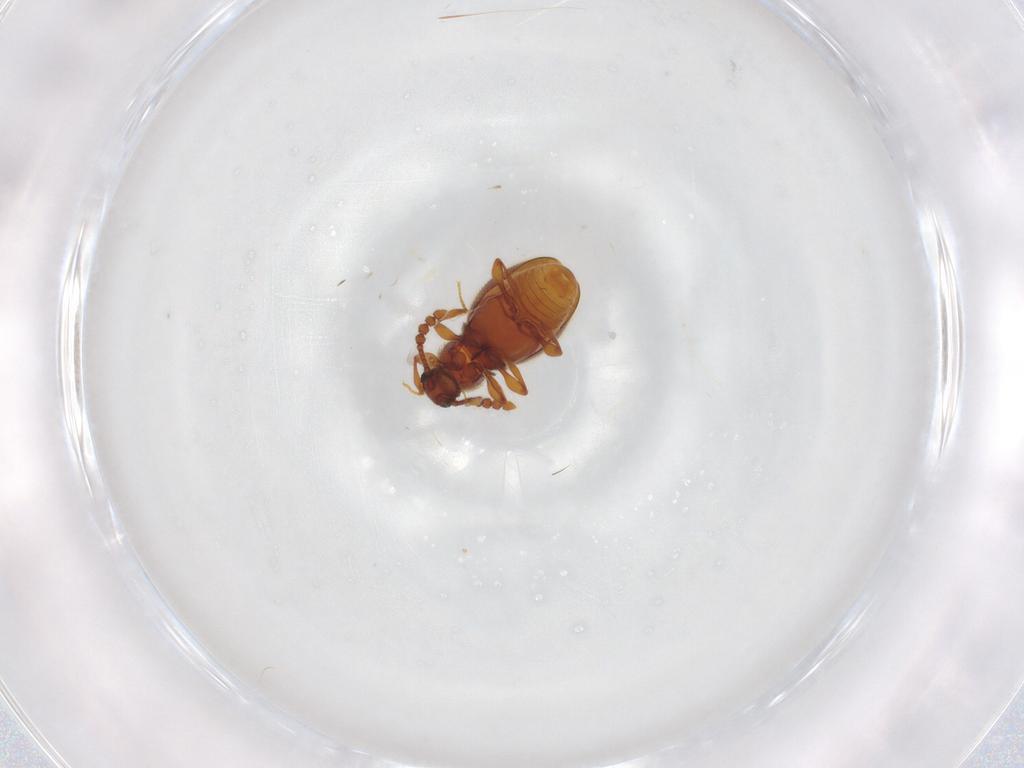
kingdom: Animalia
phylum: Arthropoda
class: Insecta
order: Coleoptera
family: Staphylinidae
